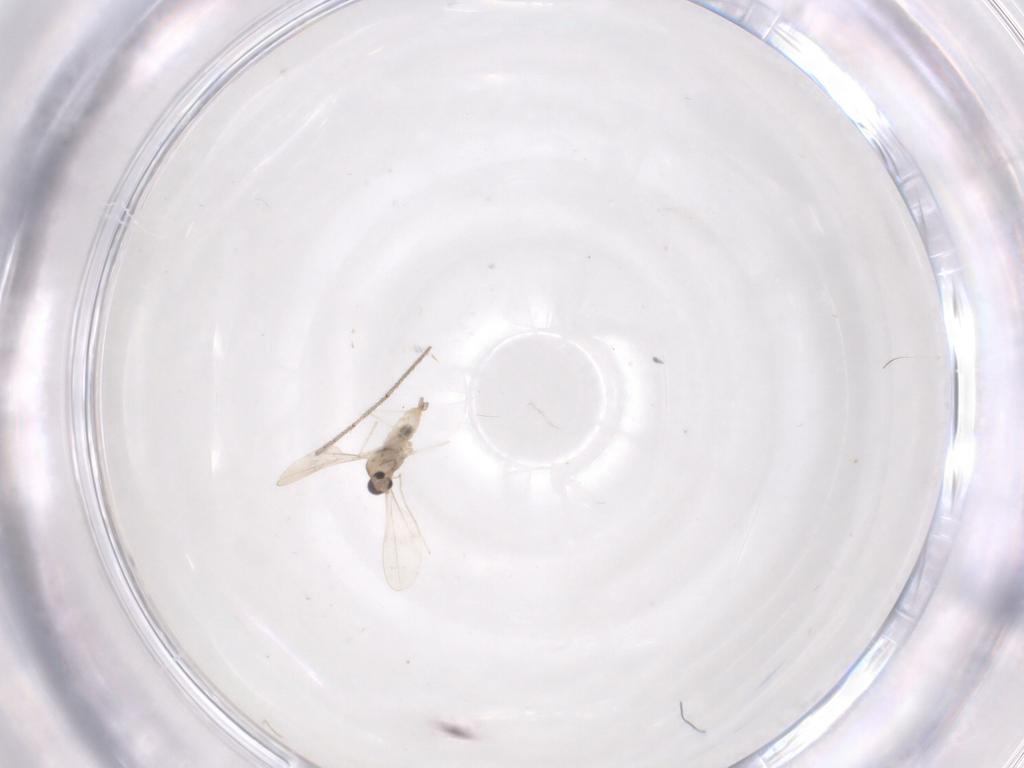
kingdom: Animalia
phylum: Arthropoda
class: Insecta
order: Diptera
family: Cecidomyiidae
